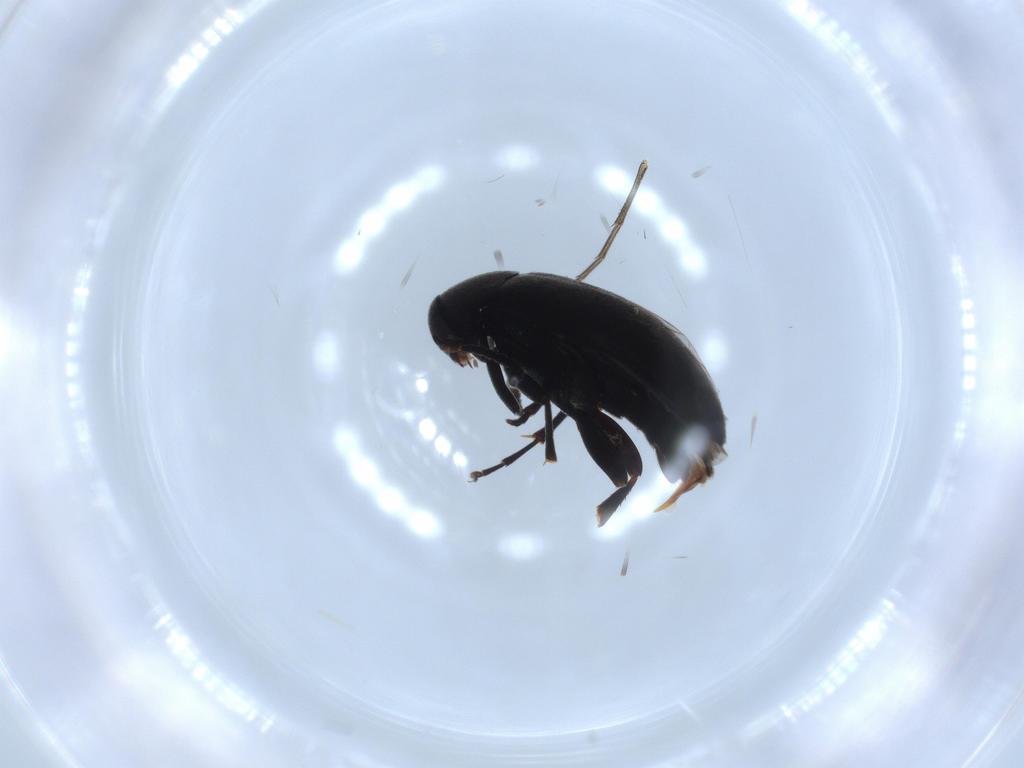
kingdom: Animalia
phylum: Arthropoda
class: Insecta
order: Coleoptera
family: Scraptiidae
